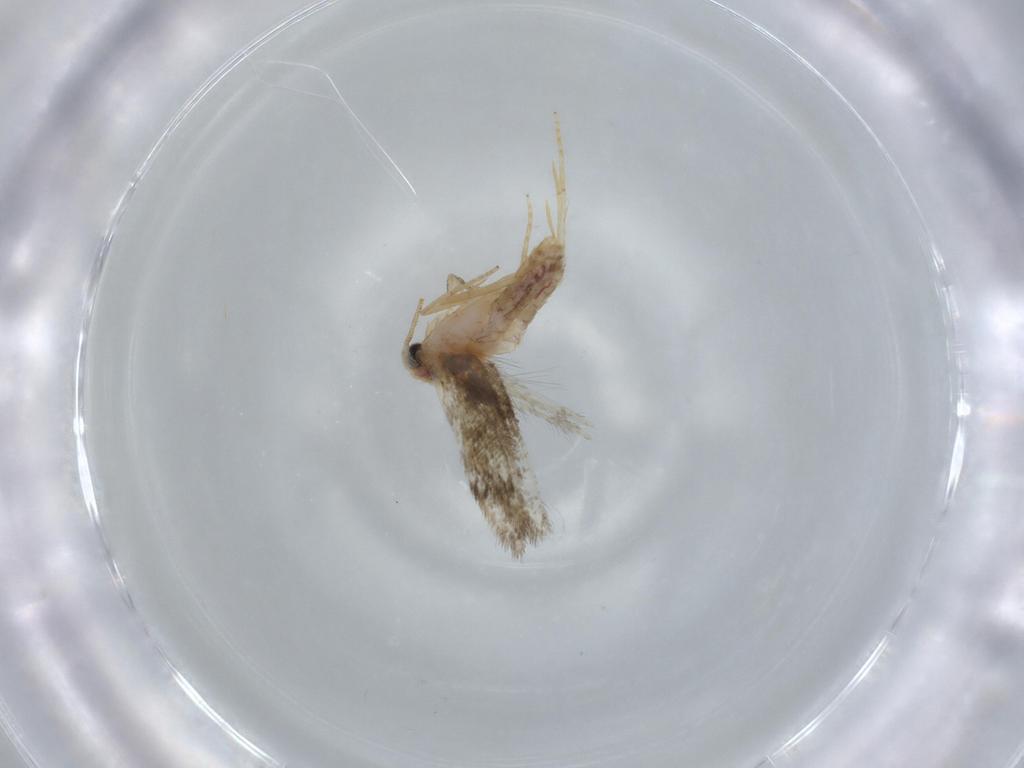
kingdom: Animalia
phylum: Arthropoda
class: Insecta
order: Lepidoptera
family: Nepticulidae
